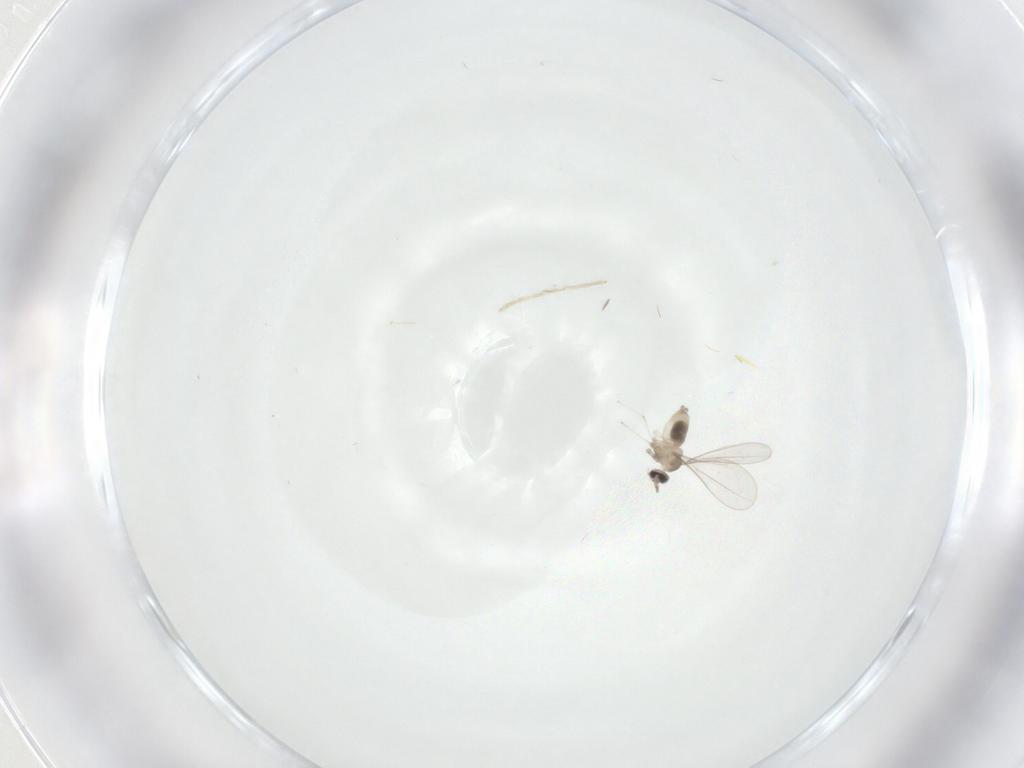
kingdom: Animalia
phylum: Arthropoda
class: Insecta
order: Diptera
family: Chironomidae
